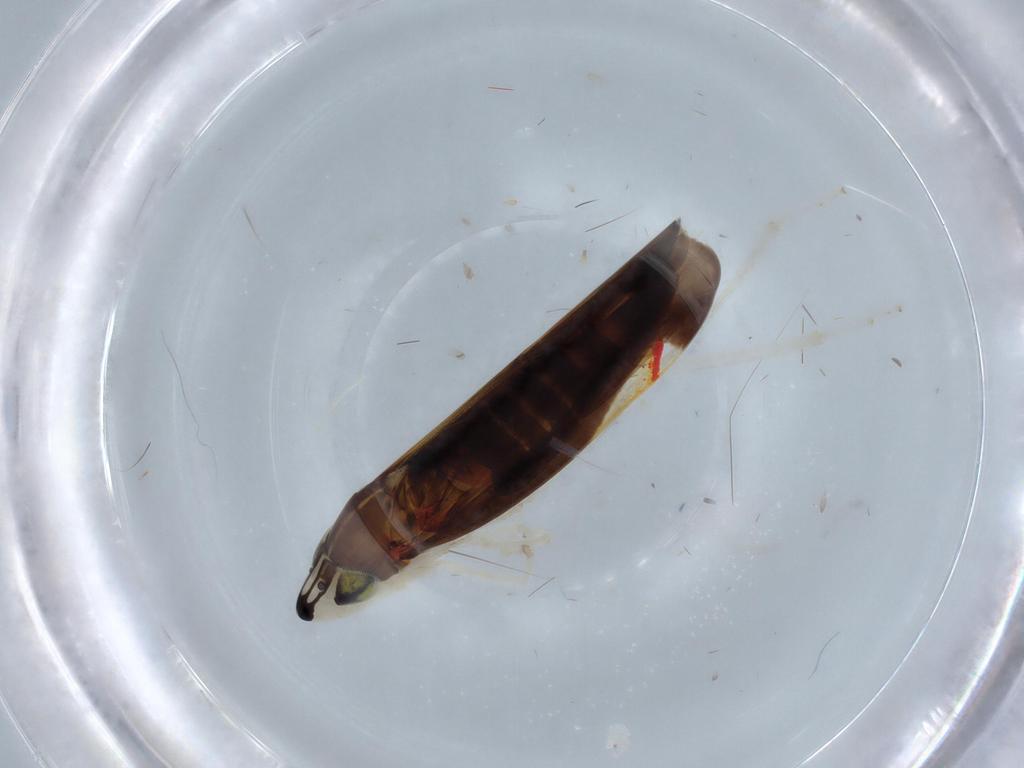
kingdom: Animalia
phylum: Arthropoda
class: Insecta
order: Hemiptera
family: Cicadellidae
